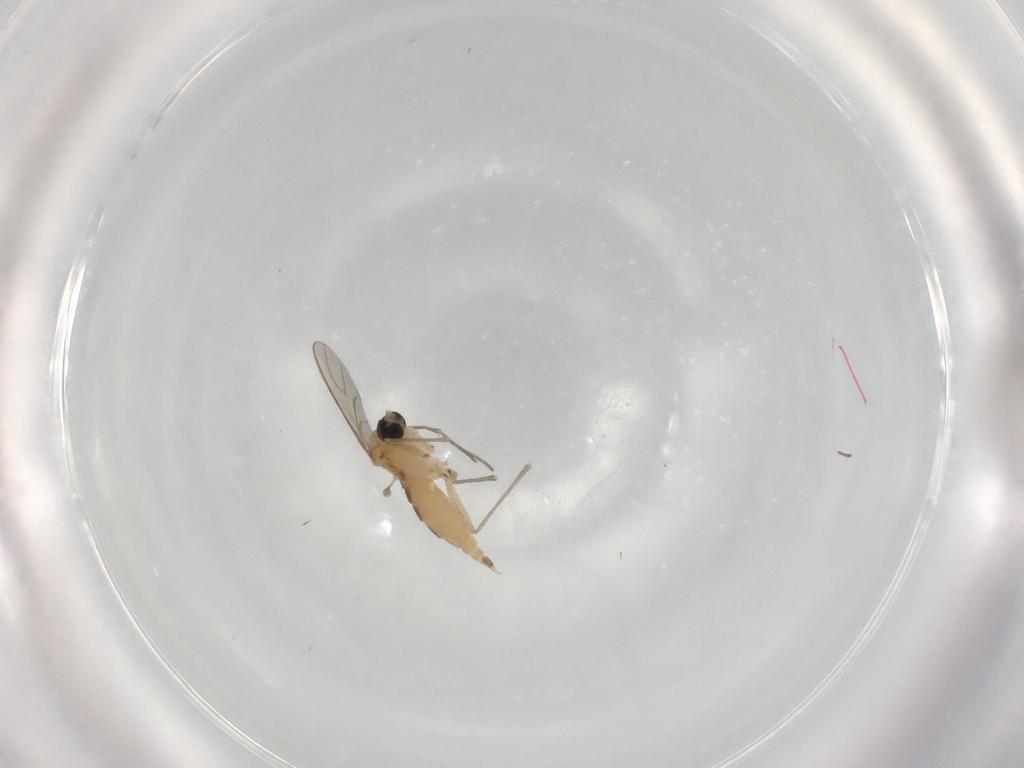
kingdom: Animalia
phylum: Arthropoda
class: Insecta
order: Diptera
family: Sciaridae
